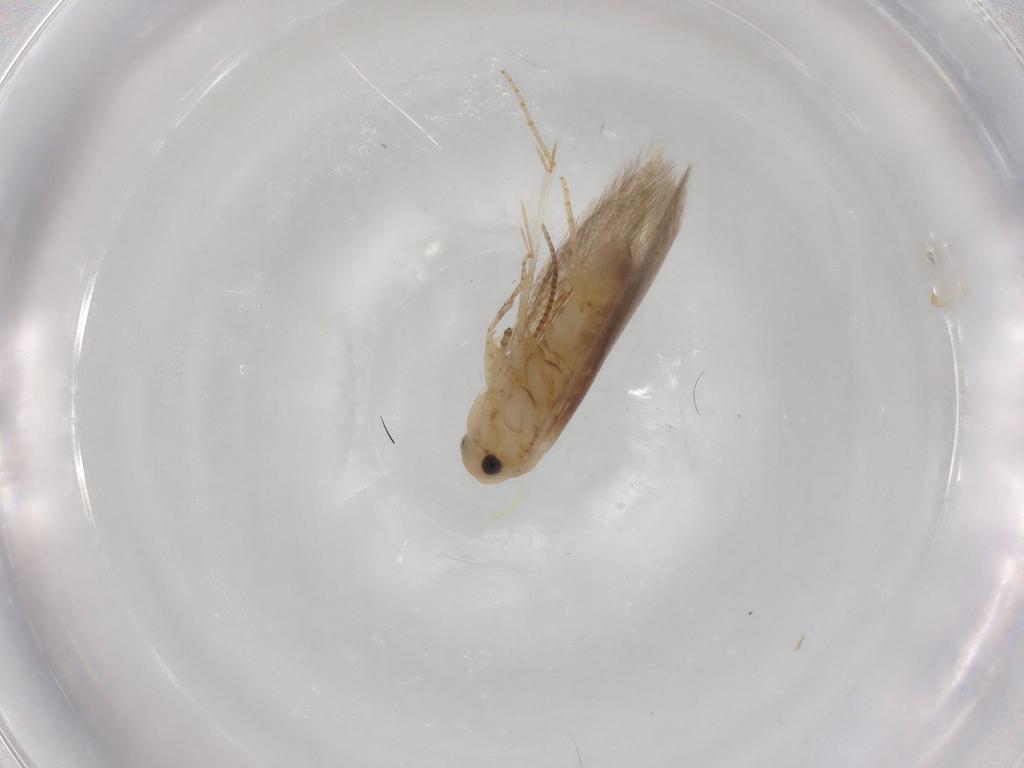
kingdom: Animalia
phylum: Arthropoda
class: Insecta
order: Lepidoptera
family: Bucculatricidae
